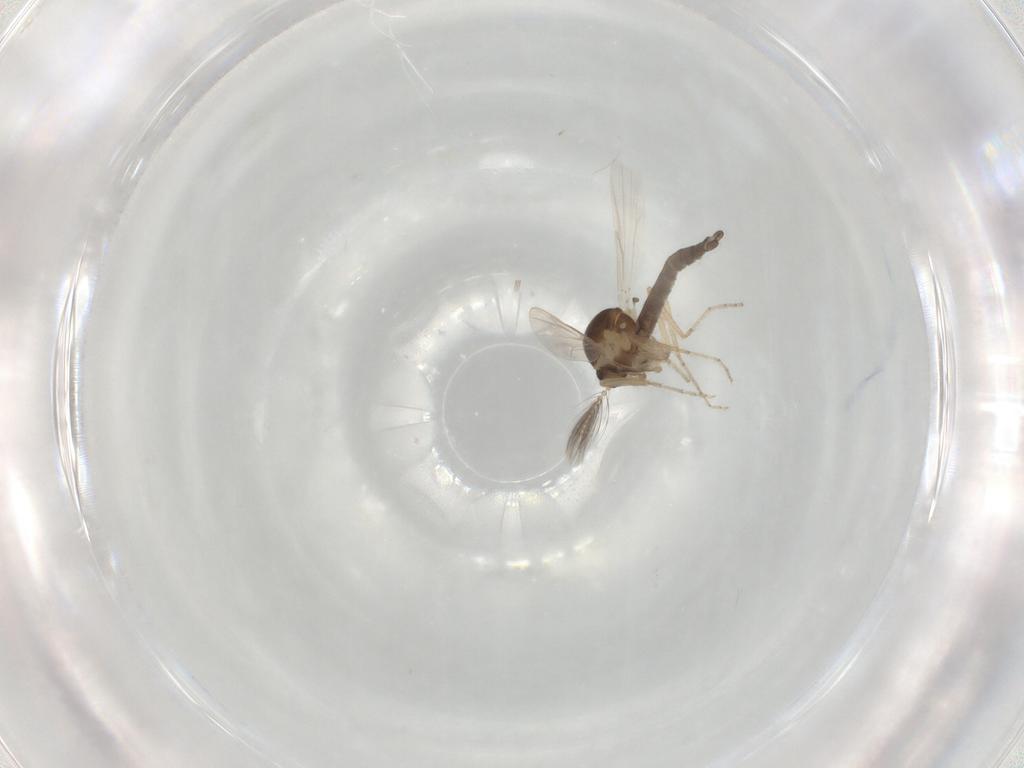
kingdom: Animalia
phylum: Arthropoda
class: Insecta
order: Diptera
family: Ceratopogonidae
